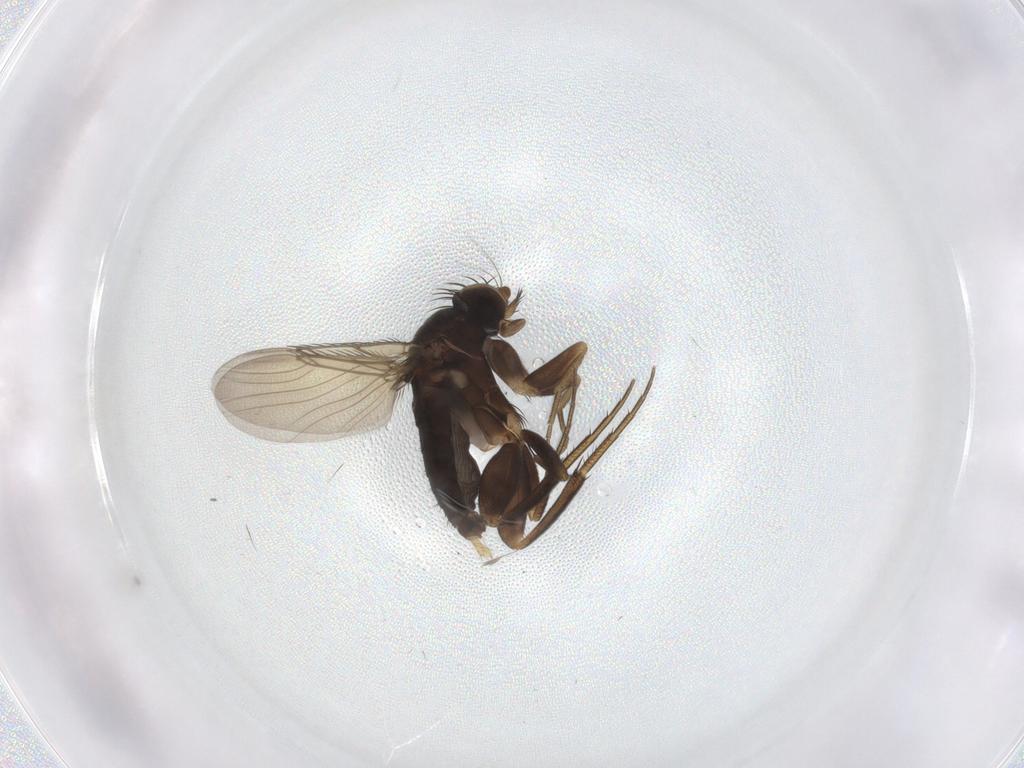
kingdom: Animalia
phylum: Arthropoda
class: Insecta
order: Diptera
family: Phoridae
